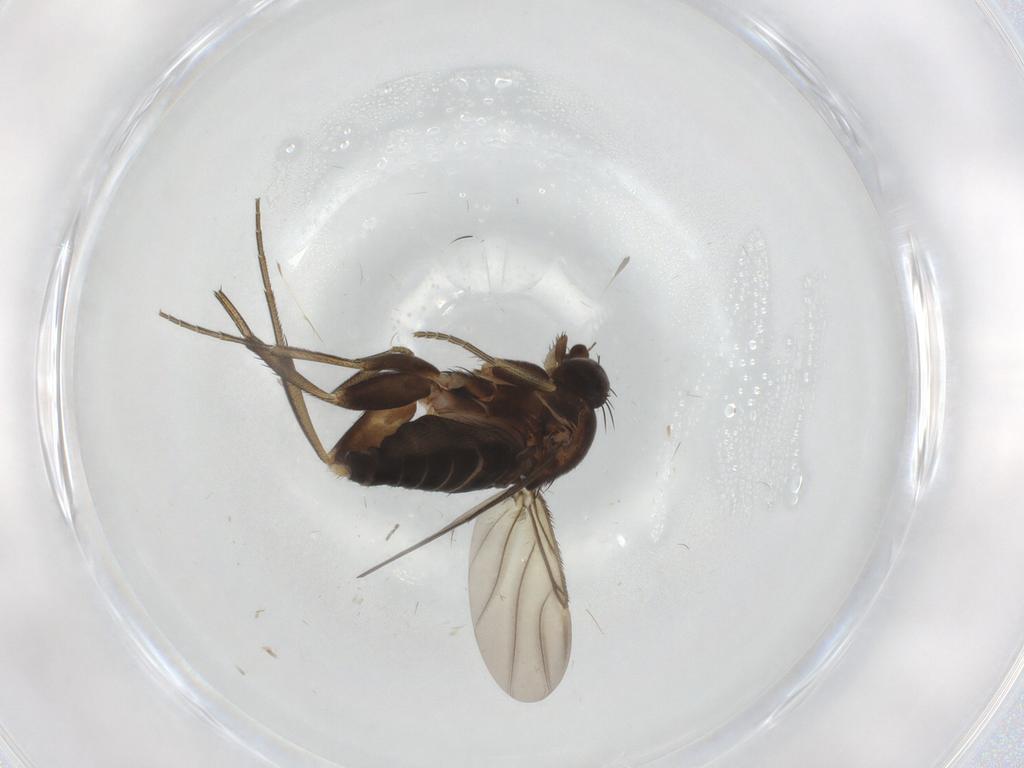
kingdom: Animalia
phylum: Arthropoda
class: Insecta
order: Diptera
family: Phoridae
